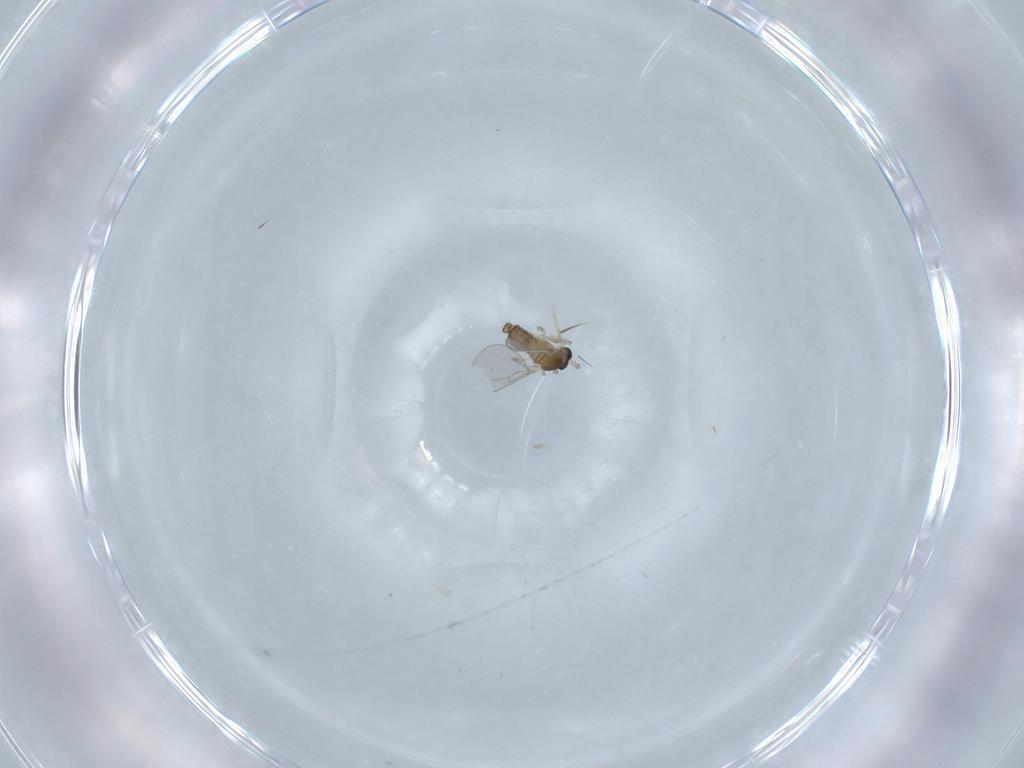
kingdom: Animalia
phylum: Arthropoda
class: Insecta
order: Diptera
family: Cecidomyiidae
